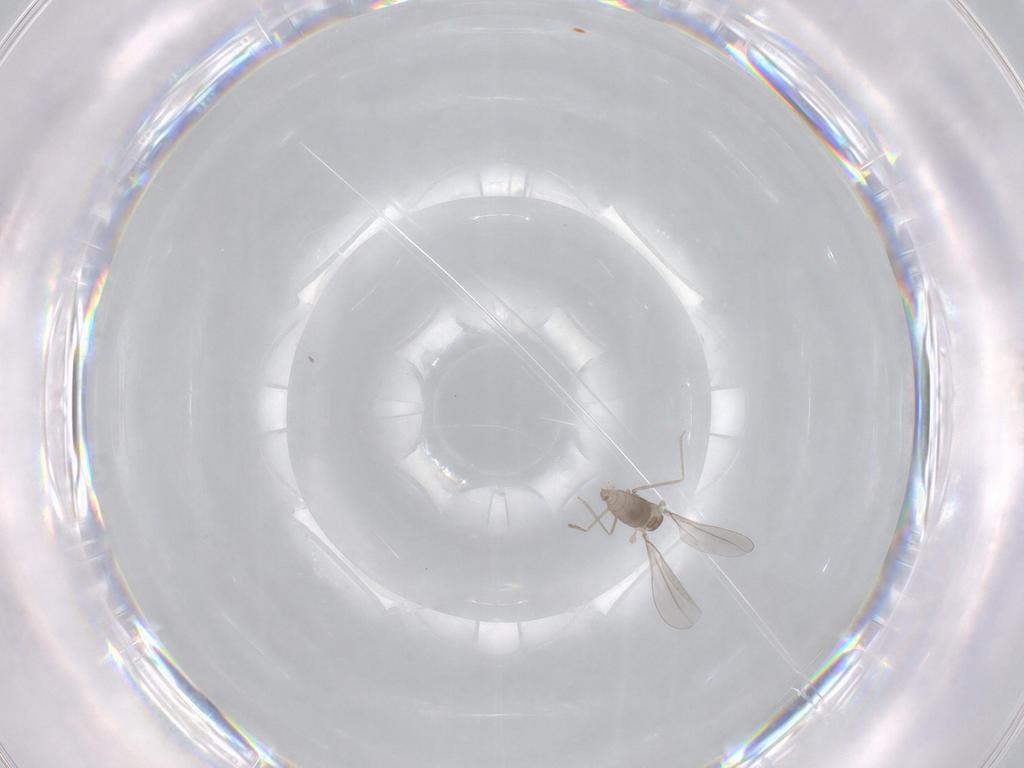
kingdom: Animalia
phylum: Arthropoda
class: Insecta
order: Diptera
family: Cecidomyiidae
